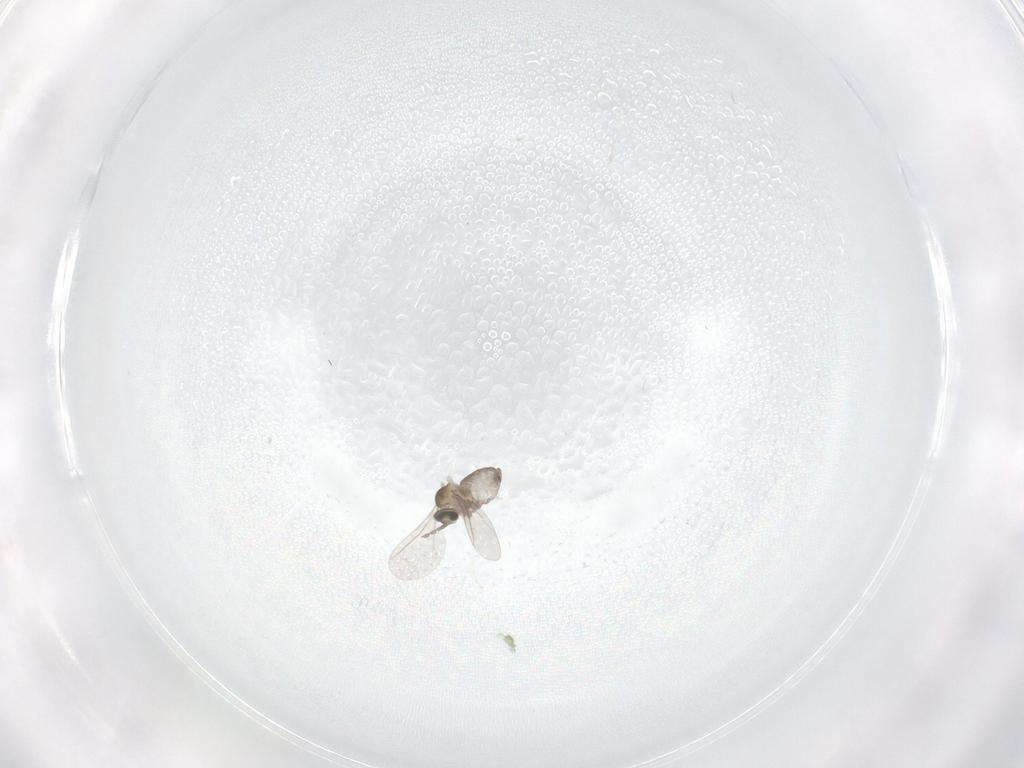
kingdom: Animalia
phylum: Arthropoda
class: Insecta
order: Diptera
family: Cecidomyiidae
